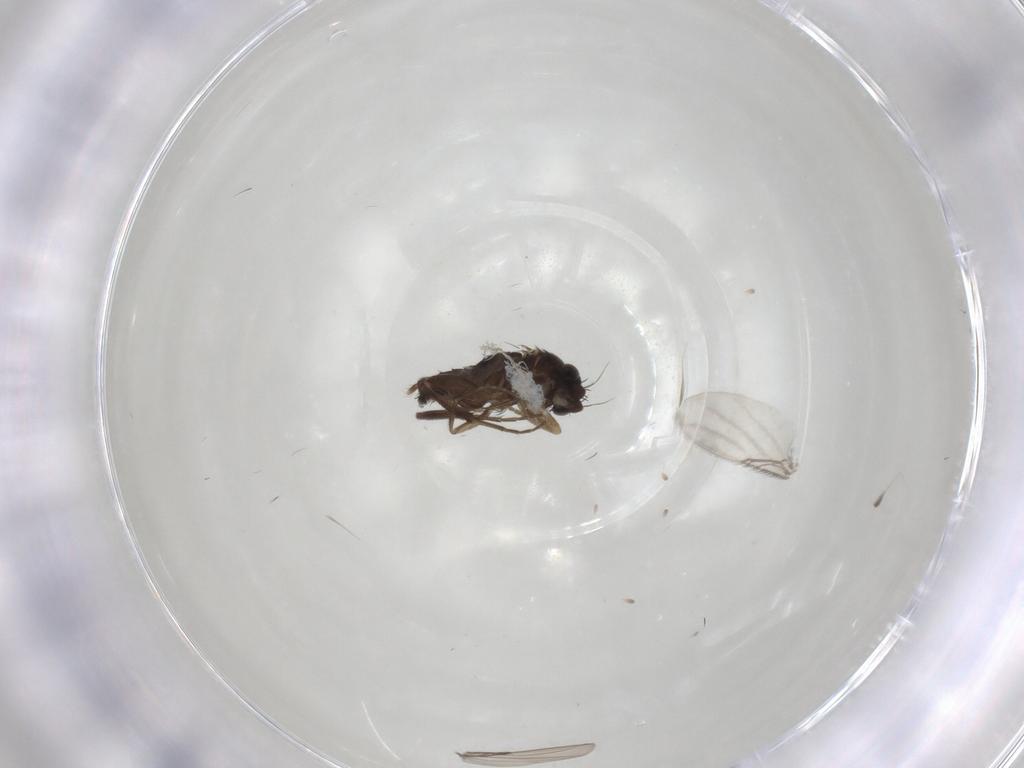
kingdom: Animalia
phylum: Arthropoda
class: Insecta
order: Diptera
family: Phoridae
